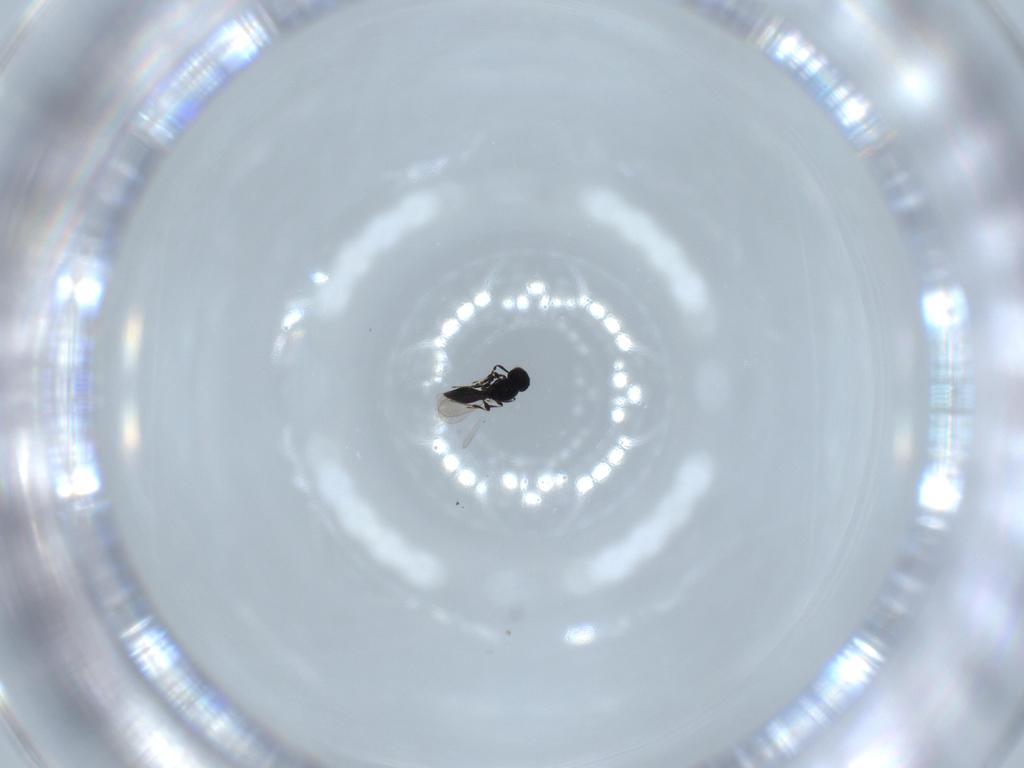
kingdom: Animalia
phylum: Arthropoda
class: Insecta
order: Hymenoptera
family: Platygastridae
